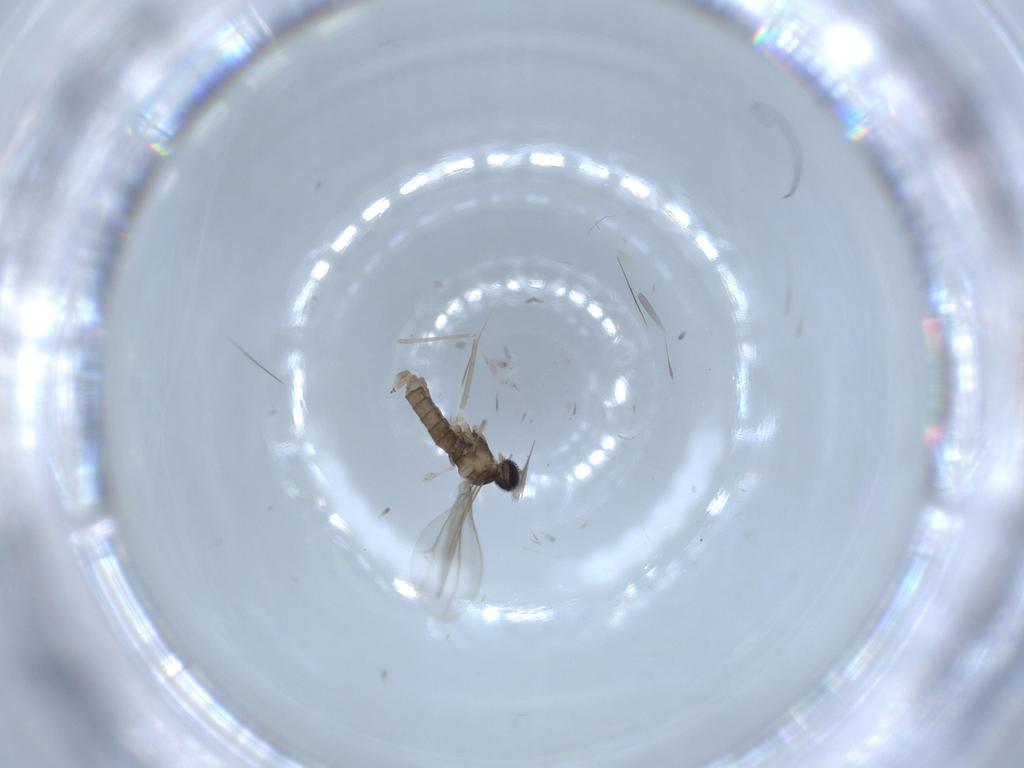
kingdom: Animalia
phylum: Arthropoda
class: Insecta
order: Diptera
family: Cecidomyiidae
